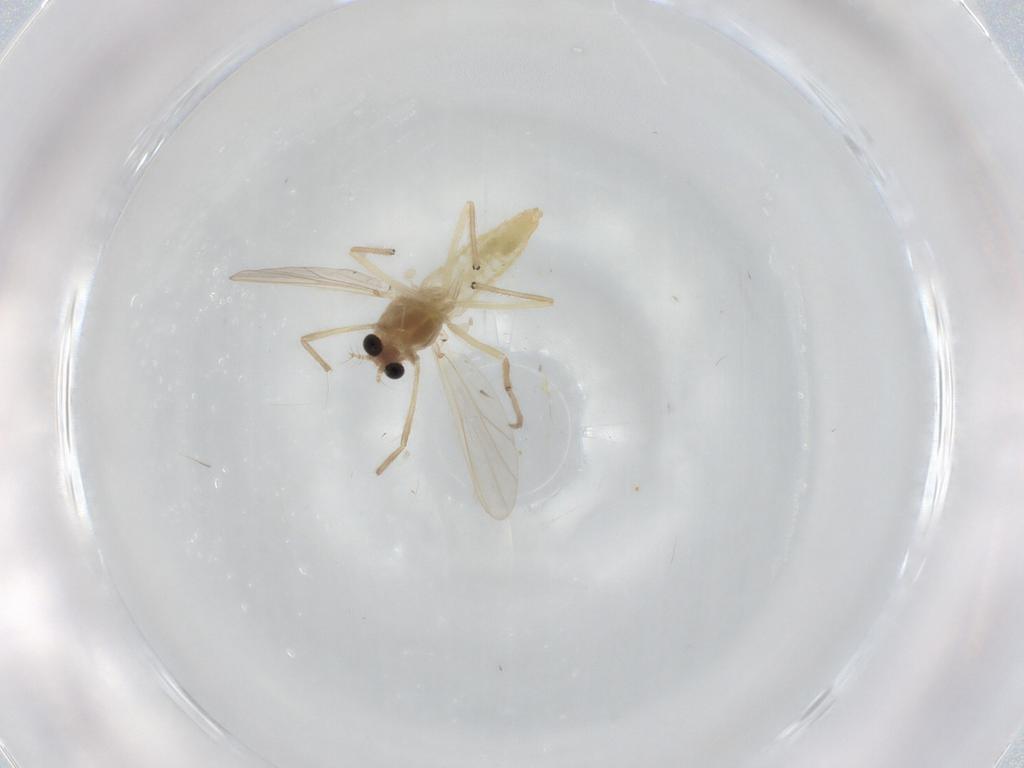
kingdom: Animalia
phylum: Arthropoda
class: Insecta
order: Diptera
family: Chironomidae
